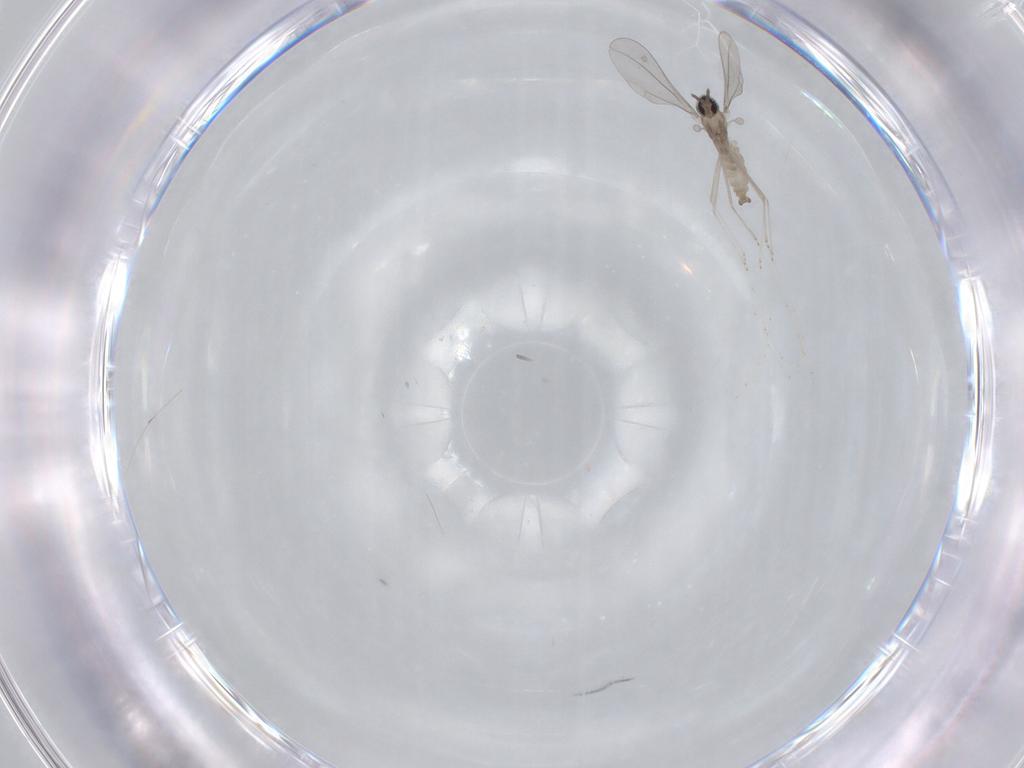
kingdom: Animalia
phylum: Arthropoda
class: Insecta
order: Diptera
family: Cecidomyiidae
